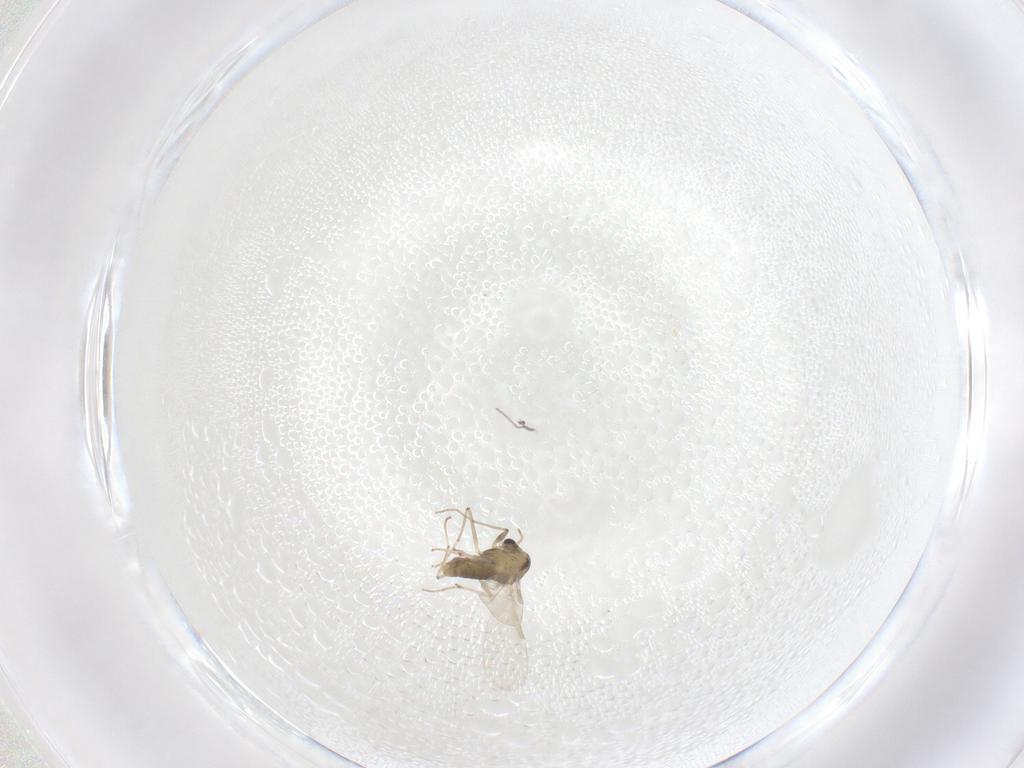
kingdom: Animalia
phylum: Arthropoda
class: Insecta
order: Diptera
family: Chironomidae
